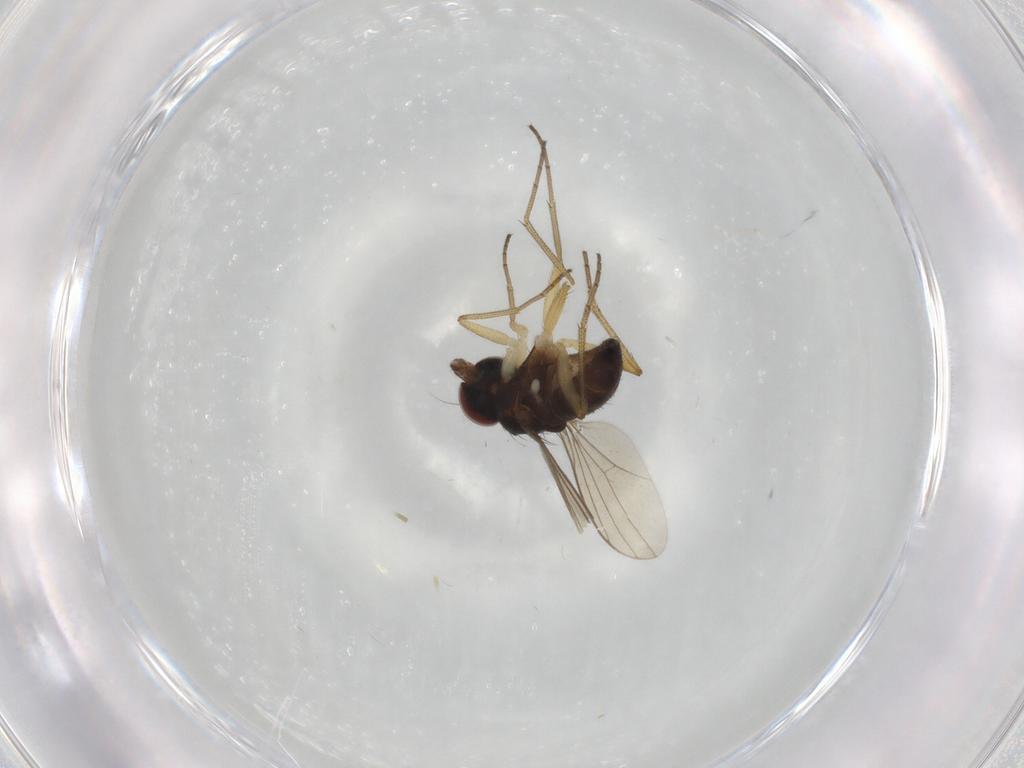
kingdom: Animalia
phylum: Arthropoda
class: Insecta
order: Diptera
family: Dolichopodidae
